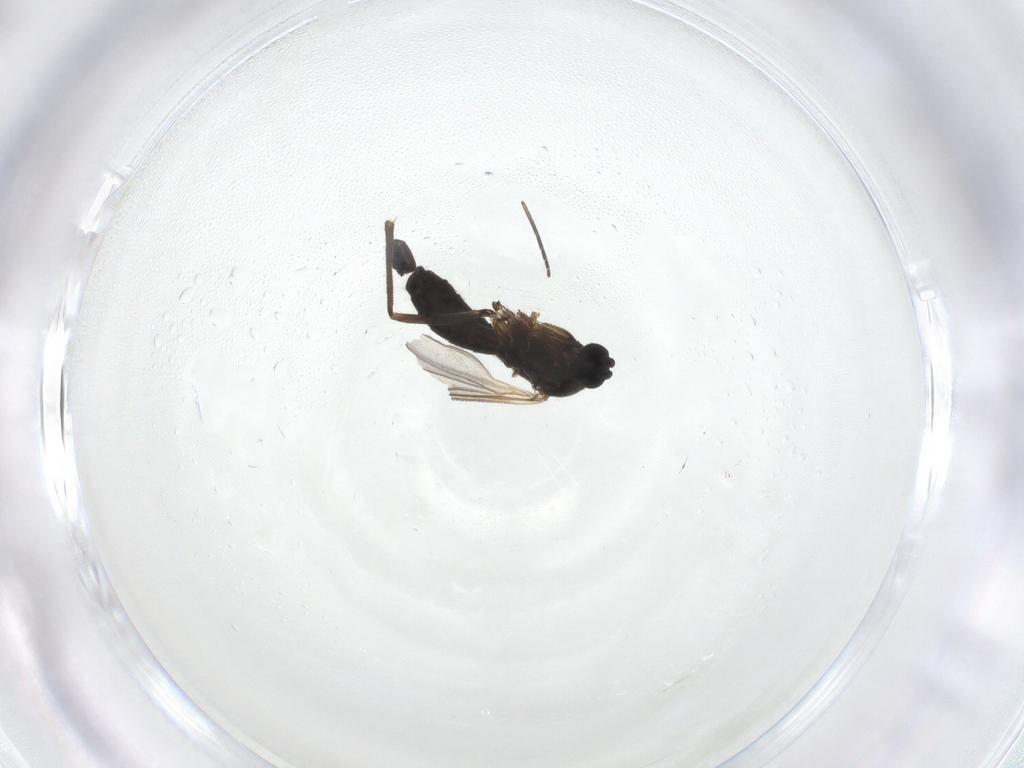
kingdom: Animalia
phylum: Arthropoda
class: Insecta
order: Diptera
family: Sciaridae
